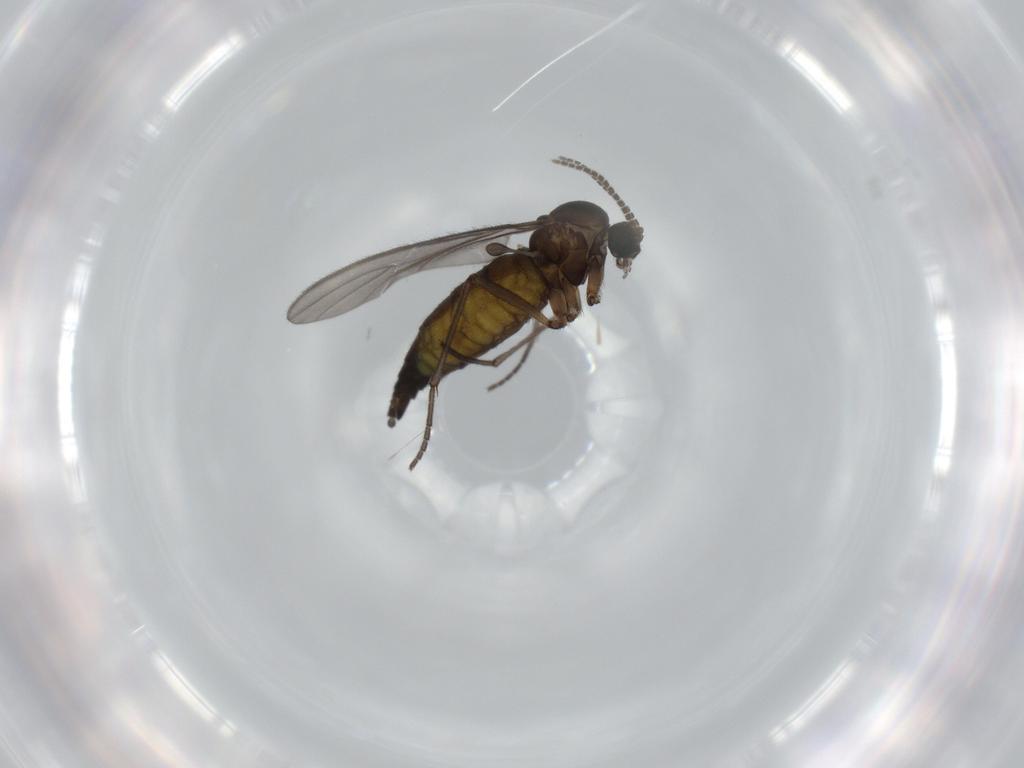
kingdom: Animalia
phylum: Arthropoda
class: Insecta
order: Diptera
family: Sciaridae
